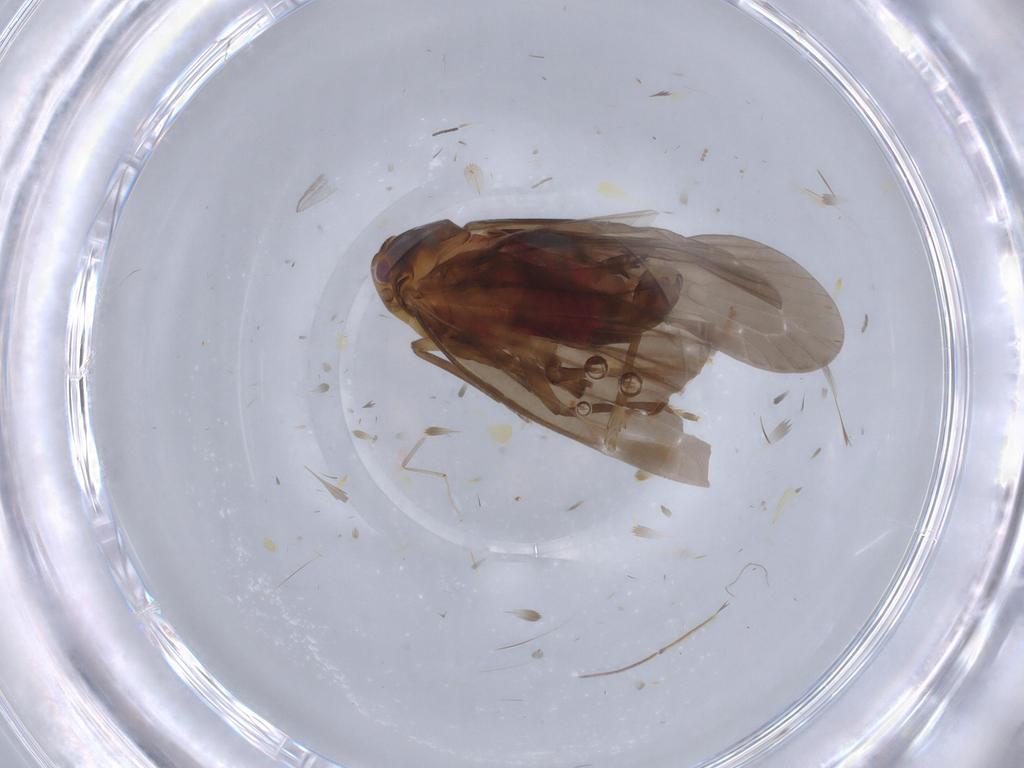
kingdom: Animalia
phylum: Arthropoda
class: Insecta
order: Hemiptera
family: Derbidae
